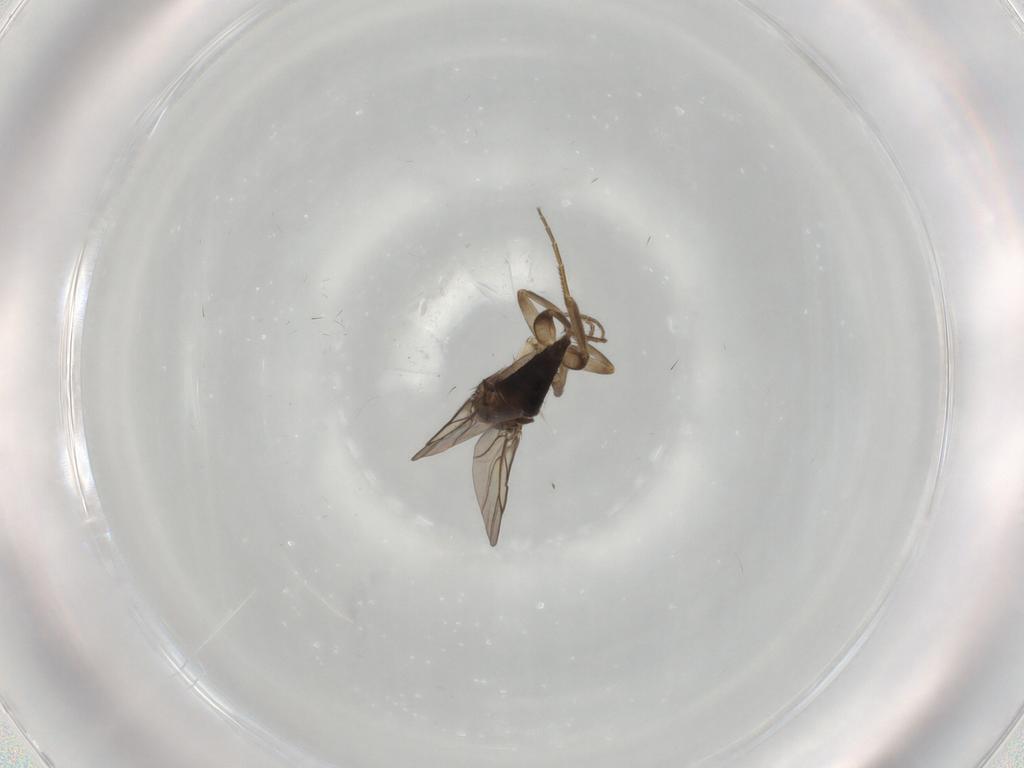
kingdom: Animalia
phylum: Arthropoda
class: Insecta
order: Diptera
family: Phoridae
